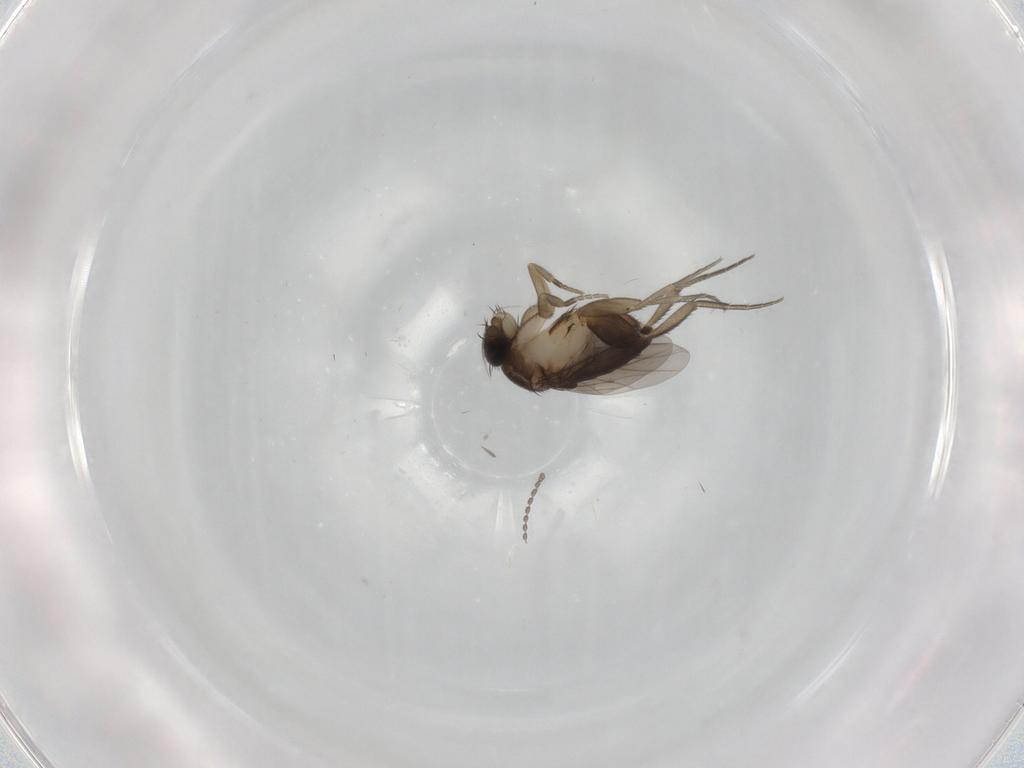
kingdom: Animalia
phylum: Arthropoda
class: Insecta
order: Diptera
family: Phoridae
